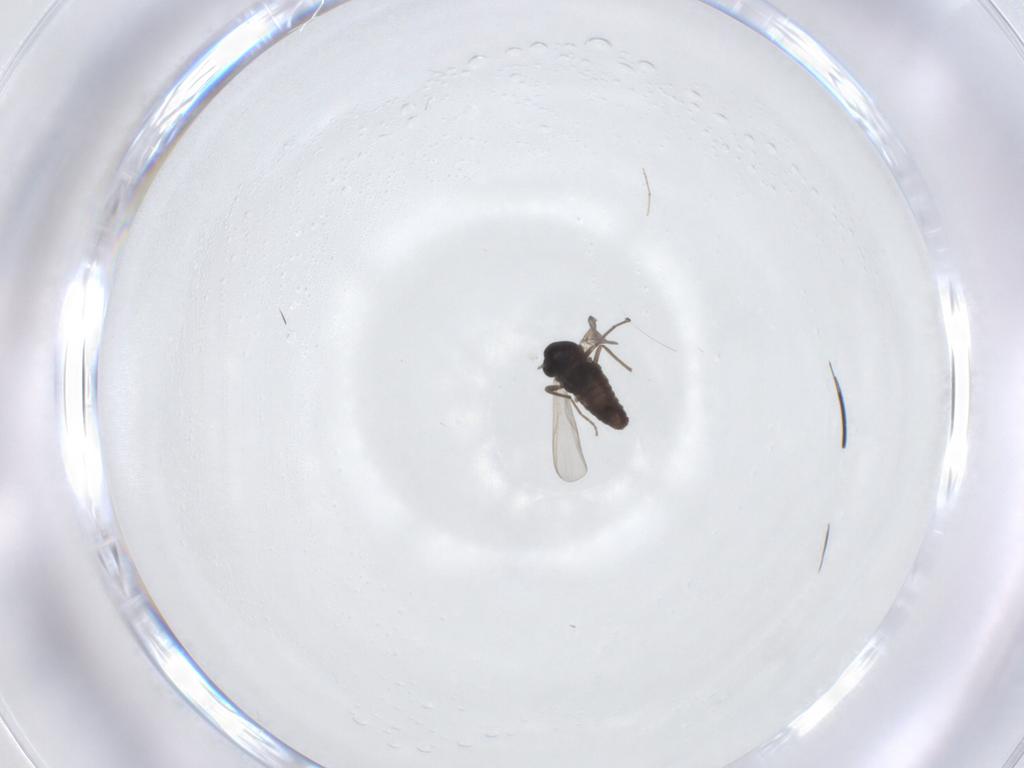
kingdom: Animalia
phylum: Arthropoda
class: Insecta
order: Diptera
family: Chironomidae
